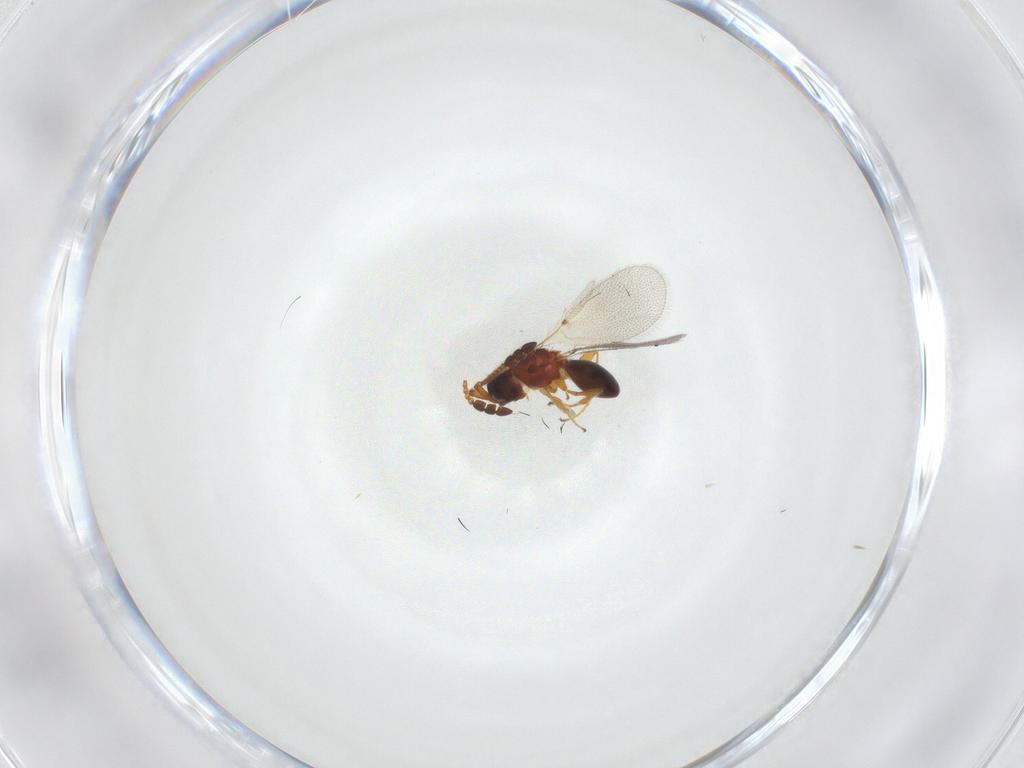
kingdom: Animalia
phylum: Arthropoda
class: Insecta
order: Hymenoptera
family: Diapriidae
